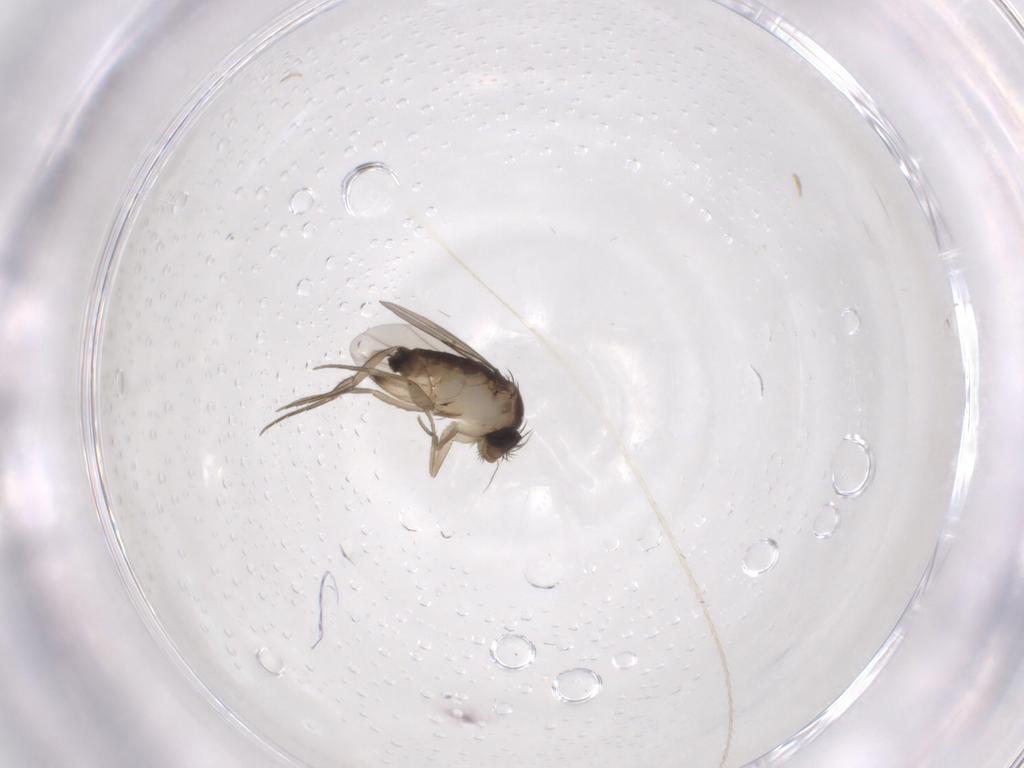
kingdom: Animalia
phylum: Arthropoda
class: Insecta
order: Diptera
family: Phoridae
